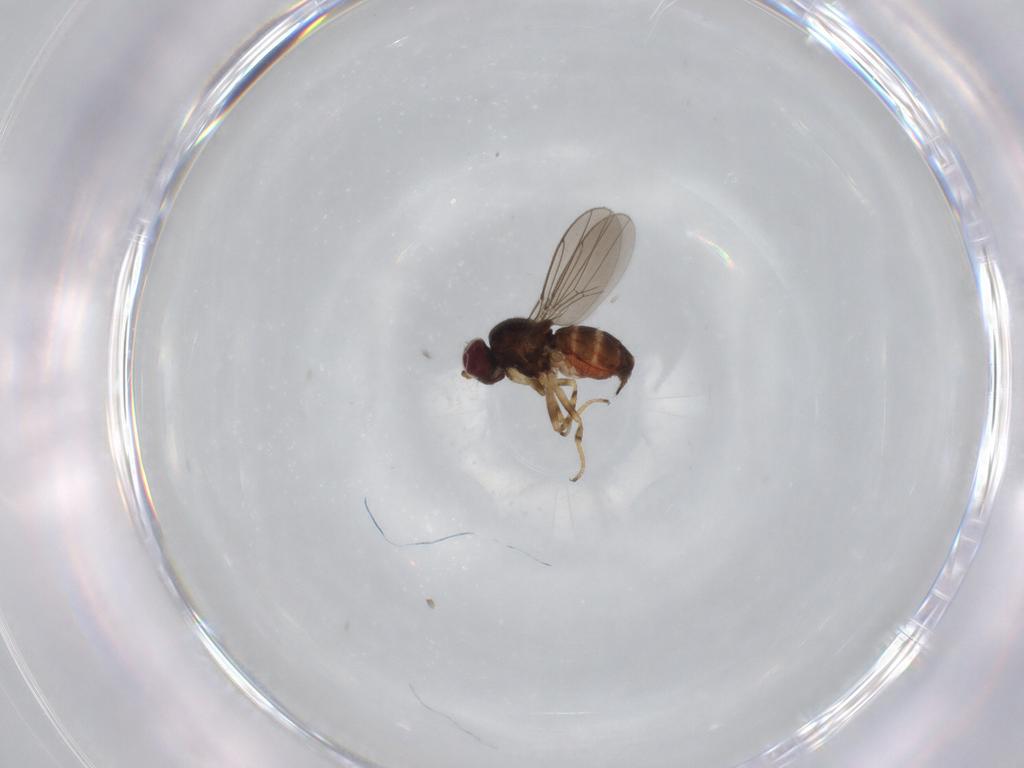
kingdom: Animalia
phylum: Arthropoda
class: Insecta
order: Diptera
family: Chloropidae
